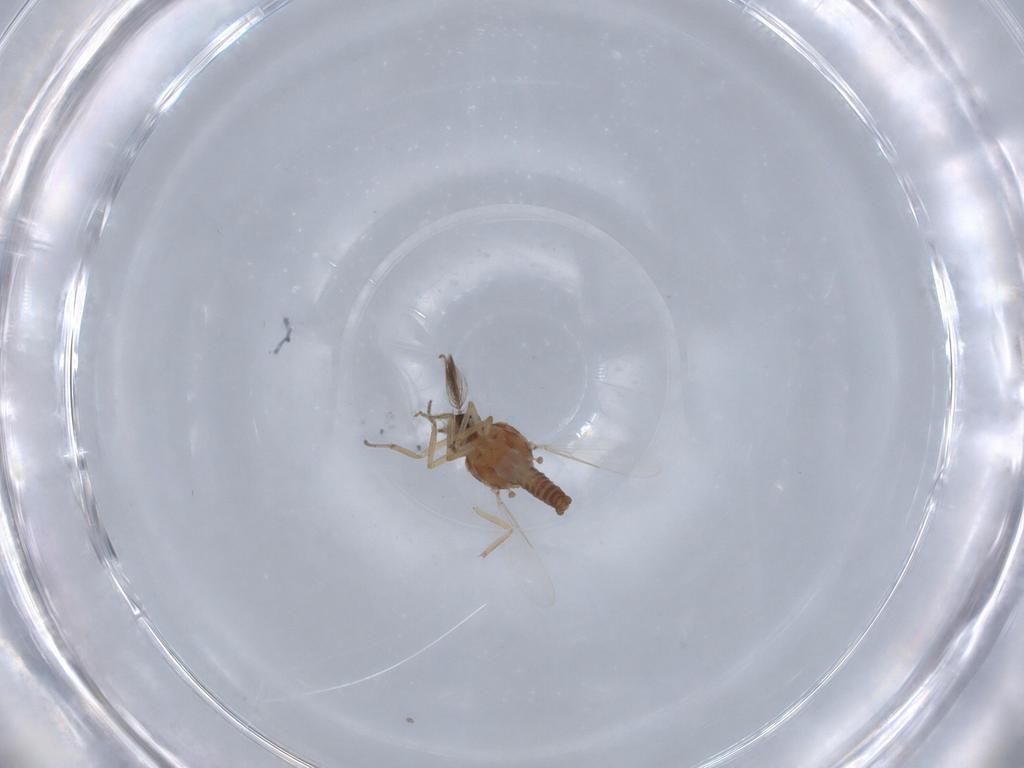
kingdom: Animalia
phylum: Arthropoda
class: Insecta
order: Diptera
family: Ceratopogonidae
